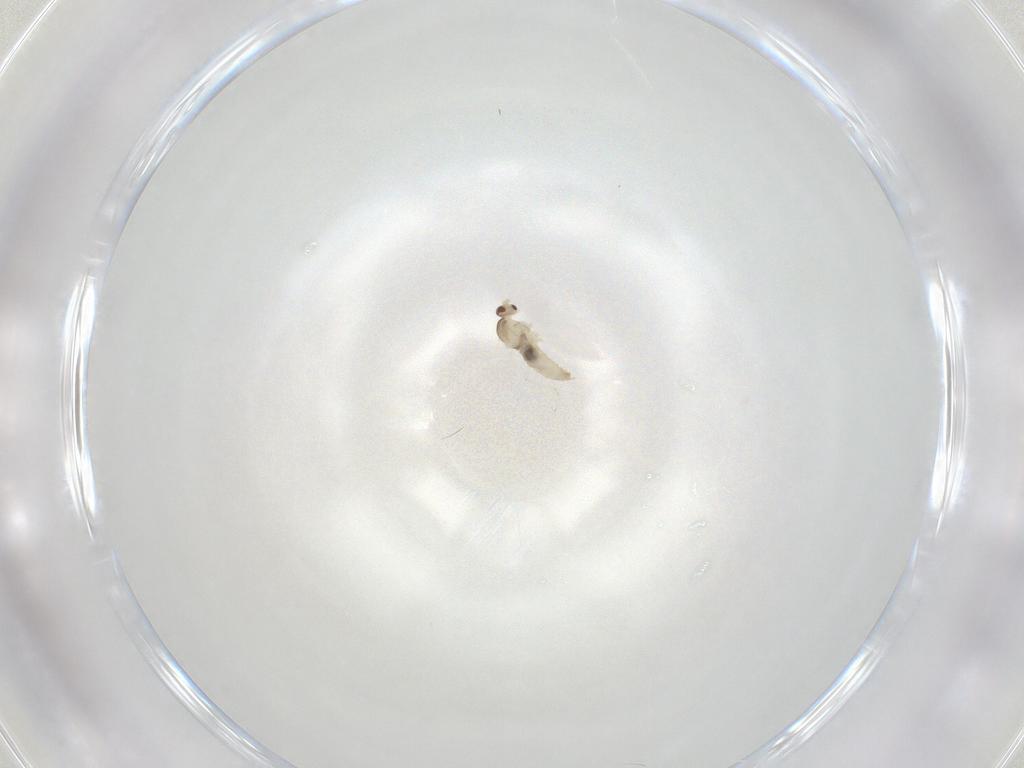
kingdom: Animalia
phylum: Arthropoda
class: Insecta
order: Diptera
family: Cecidomyiidae
